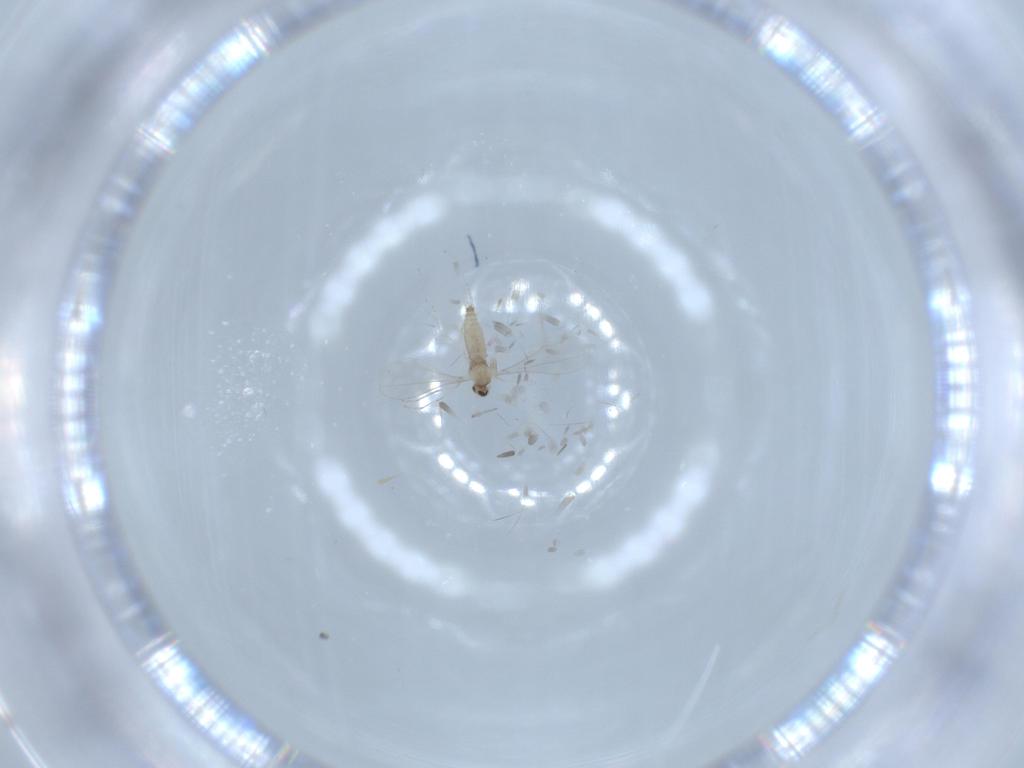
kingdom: Animalia
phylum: Arthropoda
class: Insecta
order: Diptera
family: Cecidomyiidae
